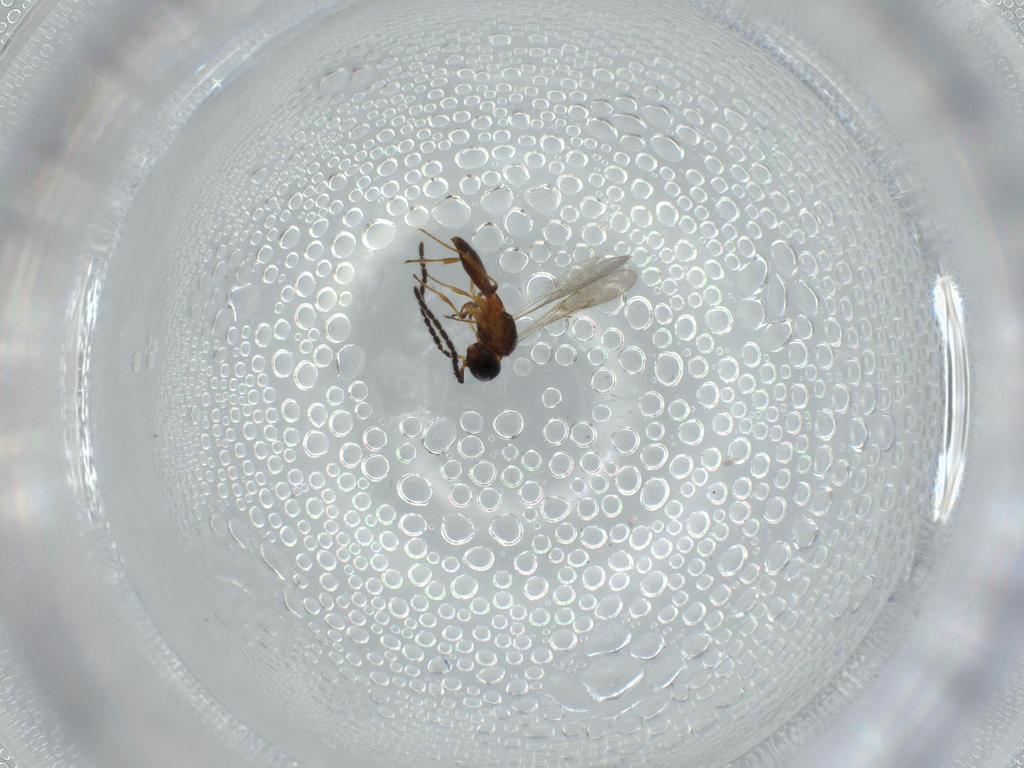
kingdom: Animalia
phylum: Arthropoda
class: Insecta
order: Hymenoptera
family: Scelionidae
